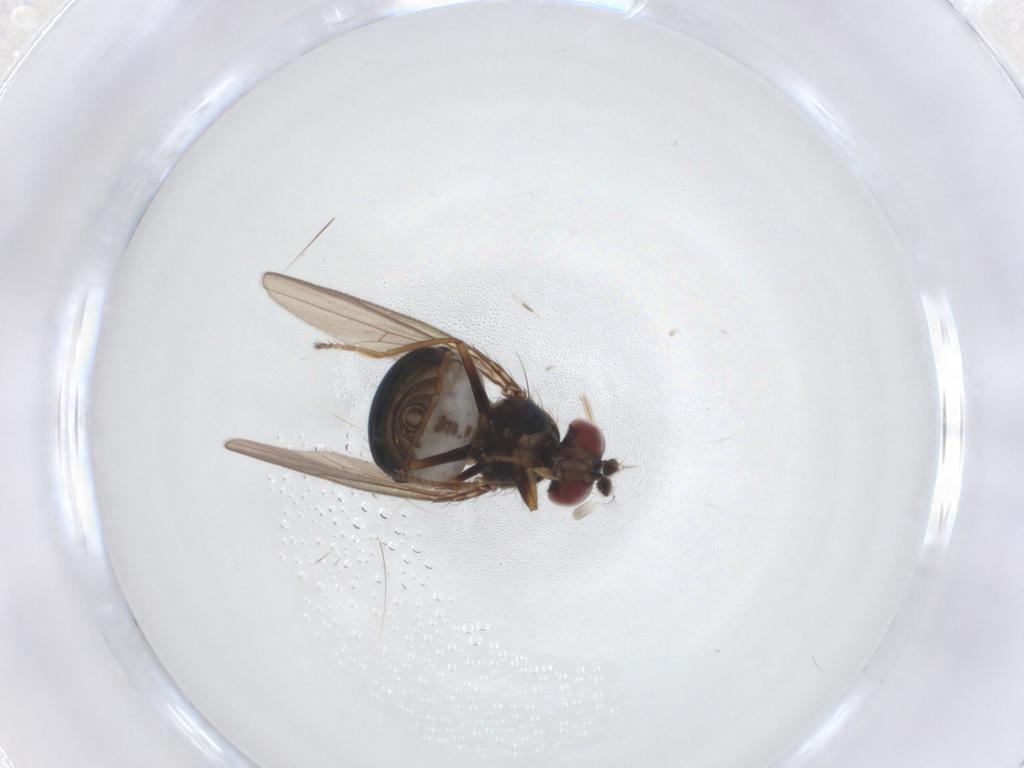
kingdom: Animalia
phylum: Arthropoda
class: Insecta
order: Diptera
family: Ephydridae
